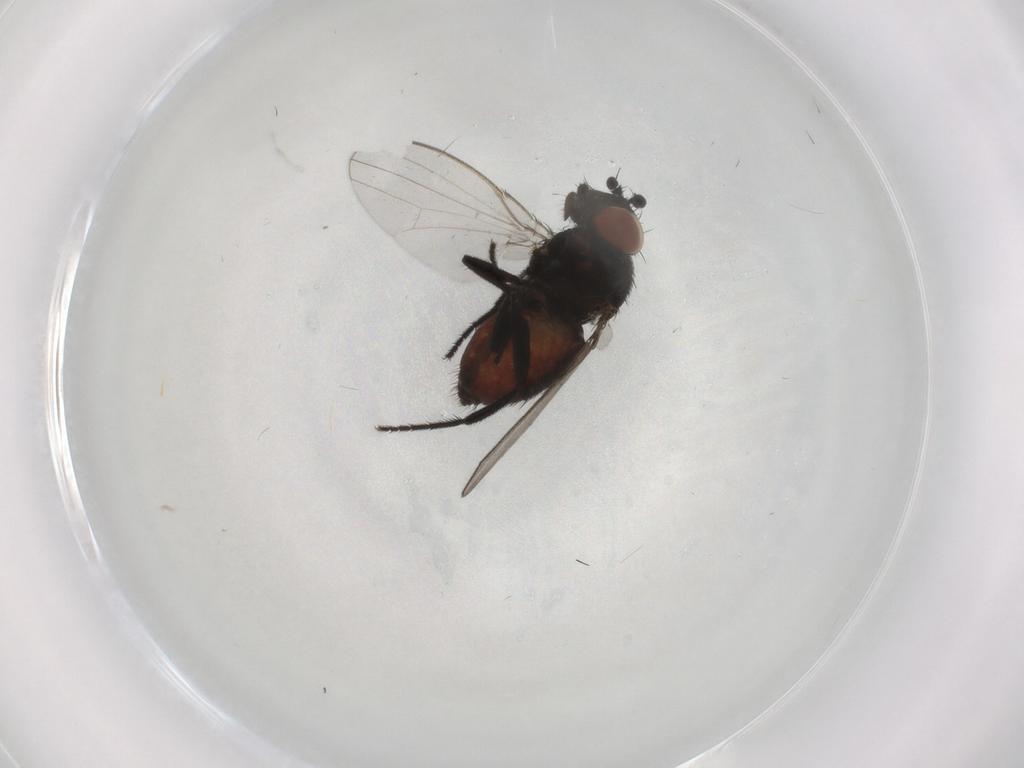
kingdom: Animalia
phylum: Arthropoda
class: Insecta
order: Diptera
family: Milichiidae
